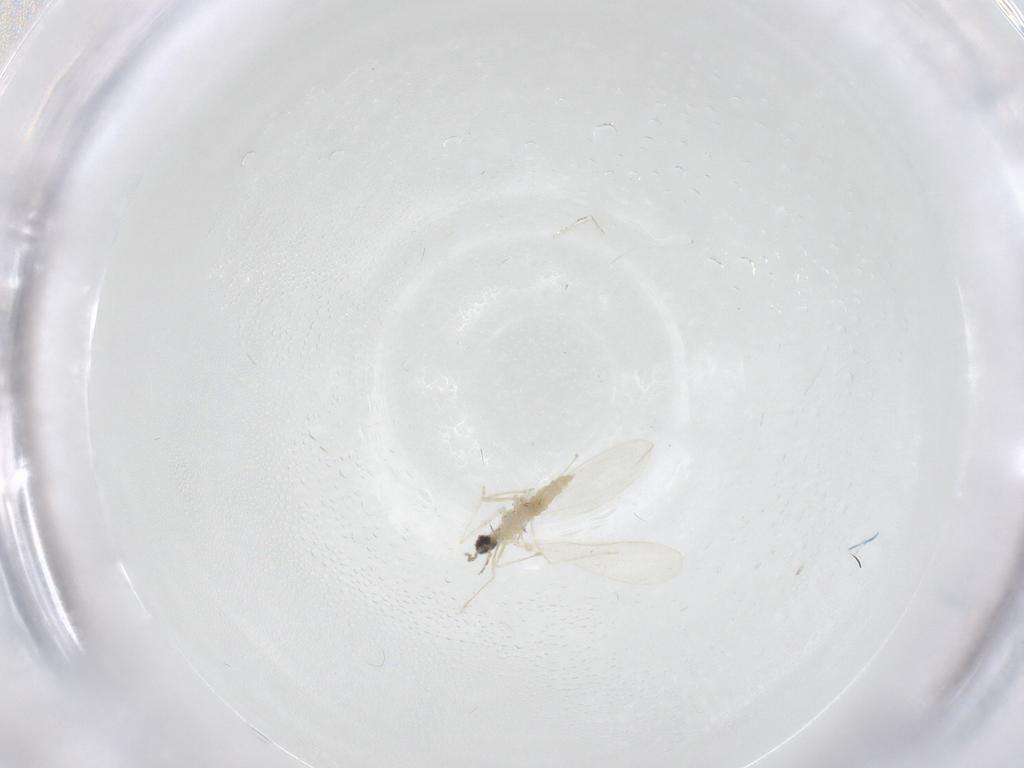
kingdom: Animalia
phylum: Arthropoda
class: Insecta
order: Diptera
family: Cecidomyiidae
